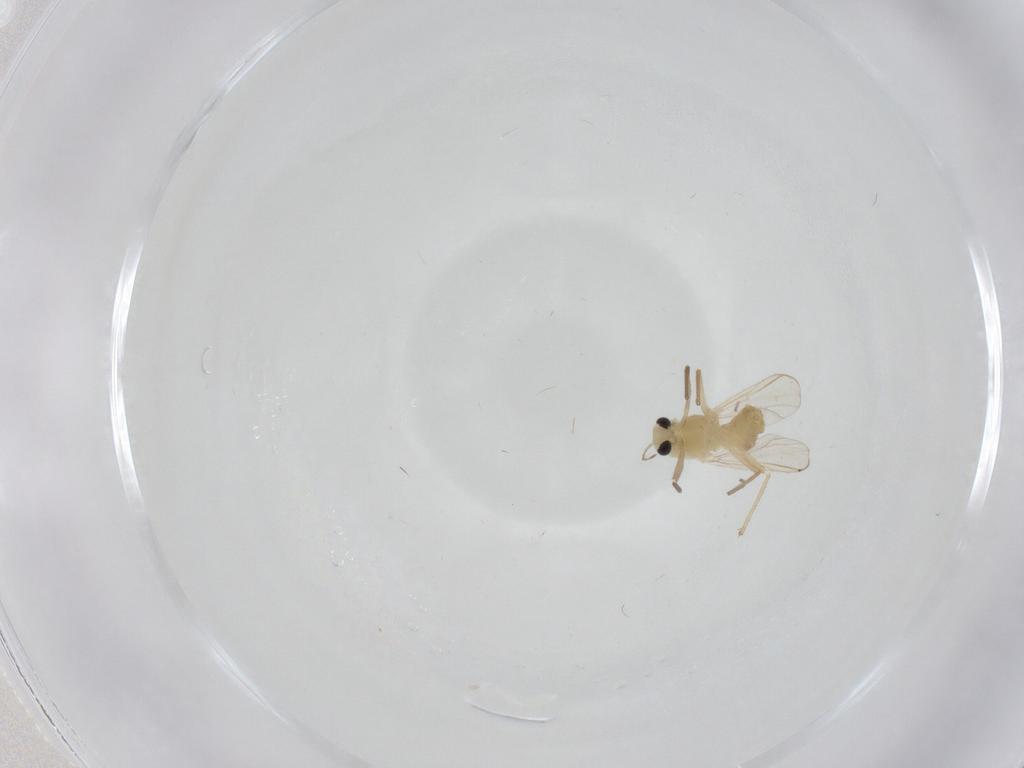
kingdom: Animalia
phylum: Arthropoda
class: Insecta
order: Diptera
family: Chironomidae
